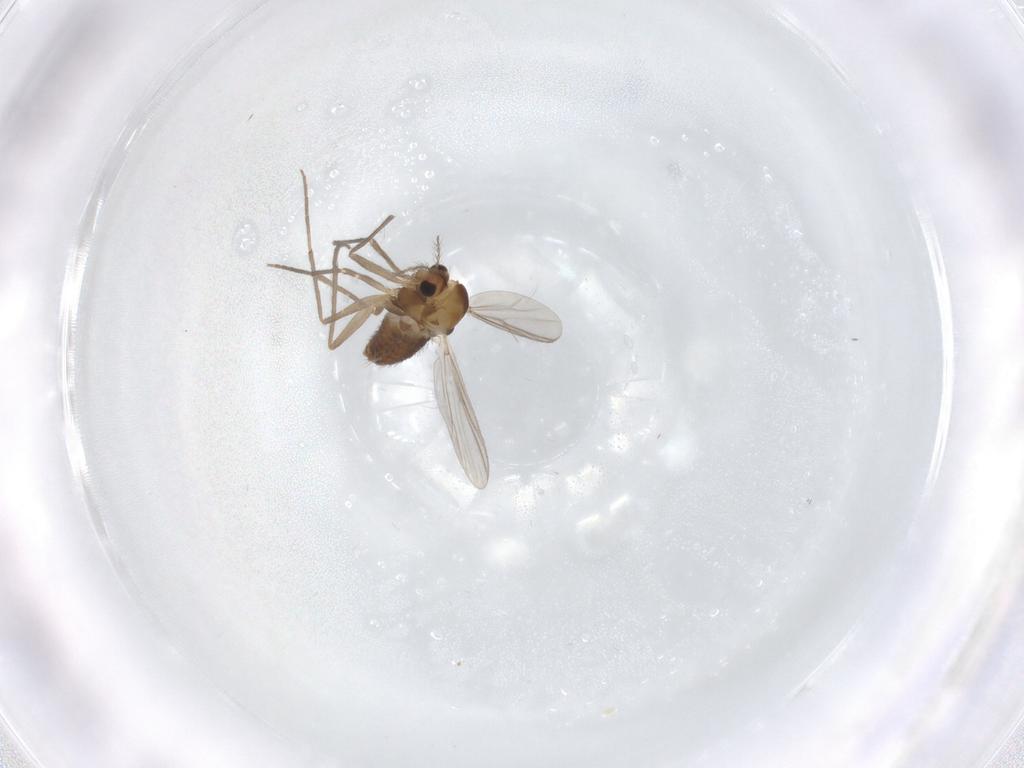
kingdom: Animalia
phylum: Arthropoda
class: Insecta
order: Diptera
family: Chironomidae
